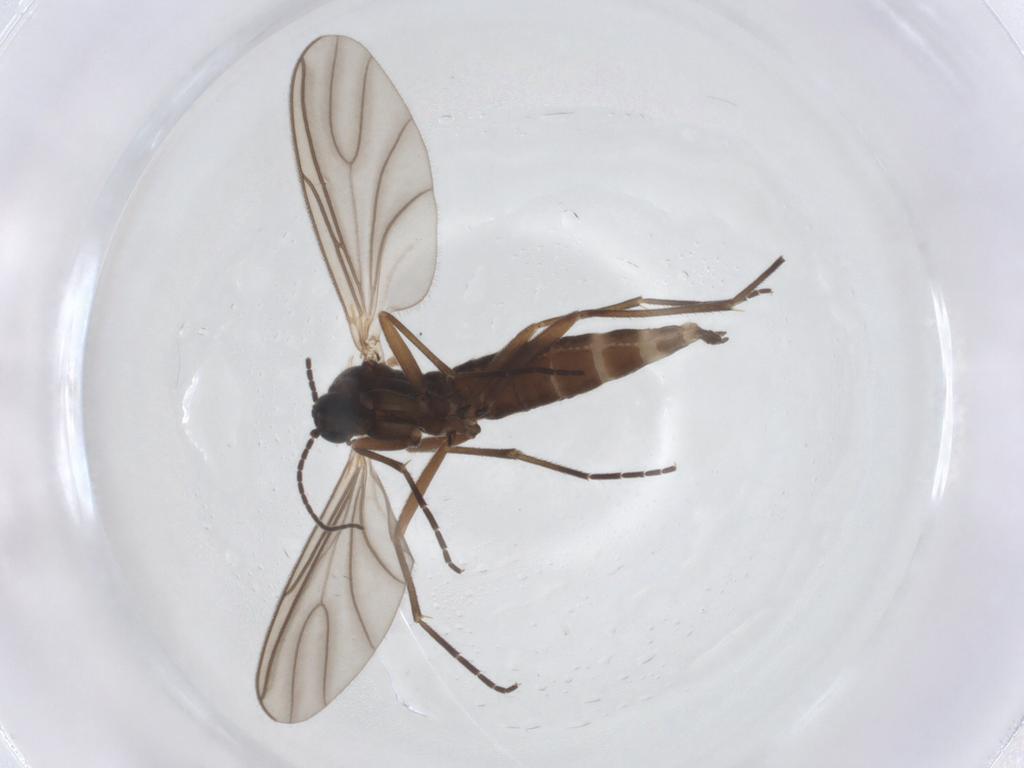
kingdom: Animalia
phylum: Arthropoda
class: Insecta
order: Diptera
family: Sciaridae
